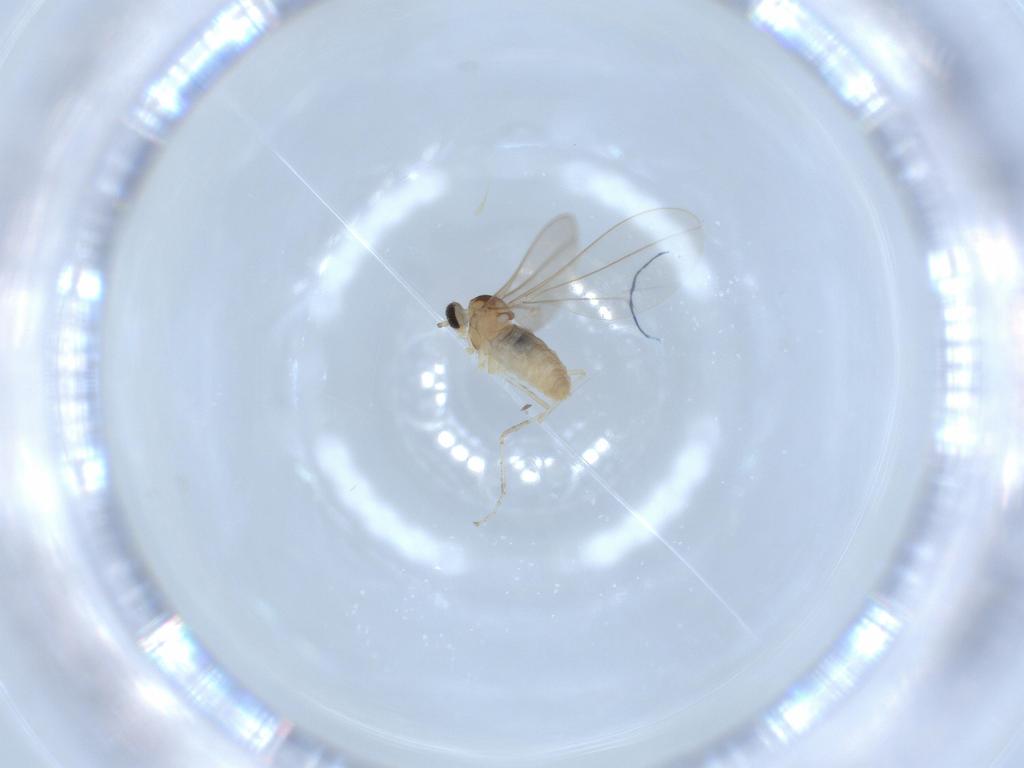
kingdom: Animalia
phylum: Arthropoda
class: Insecta
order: Diptera
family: Cecidomyiidae
